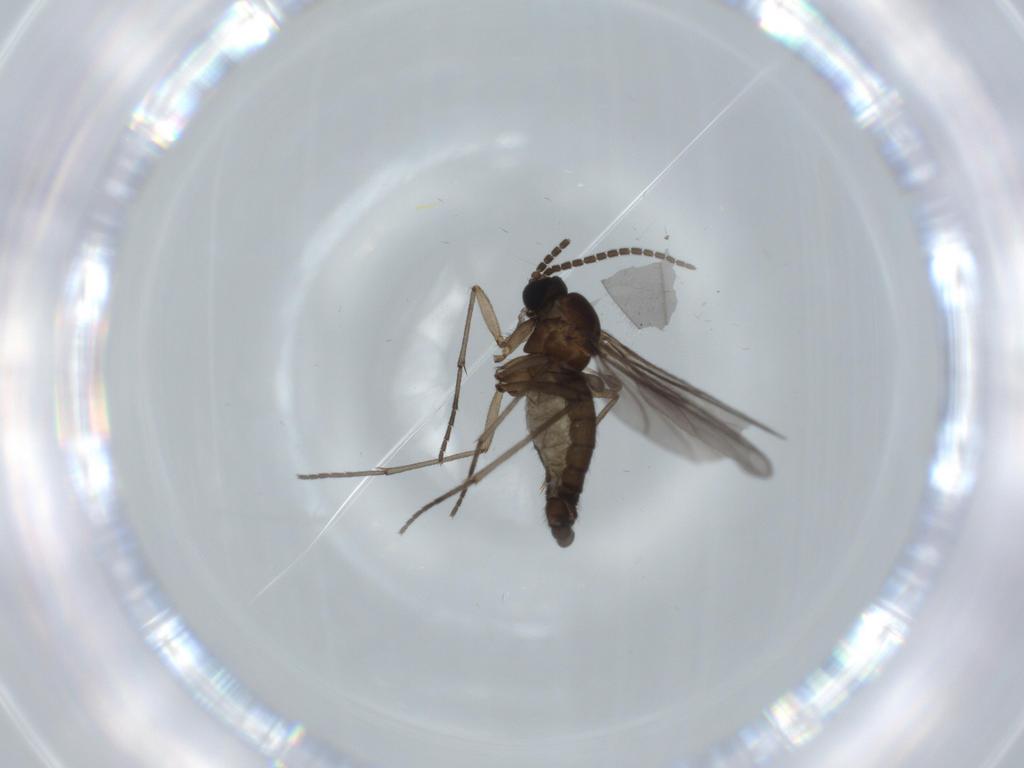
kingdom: Animalia
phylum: Arthropoda
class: Insecta
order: Diptera
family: Sciaridae
